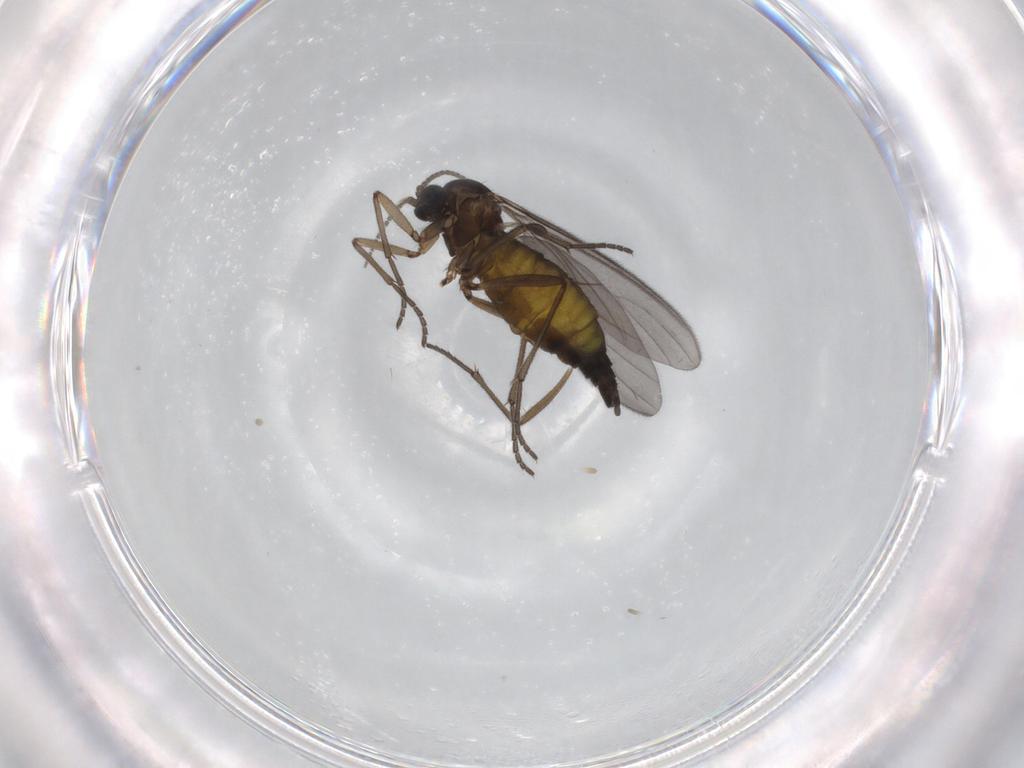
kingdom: Animalia
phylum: Arthropoda
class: Insecta
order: Diptera
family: Sciaridae
